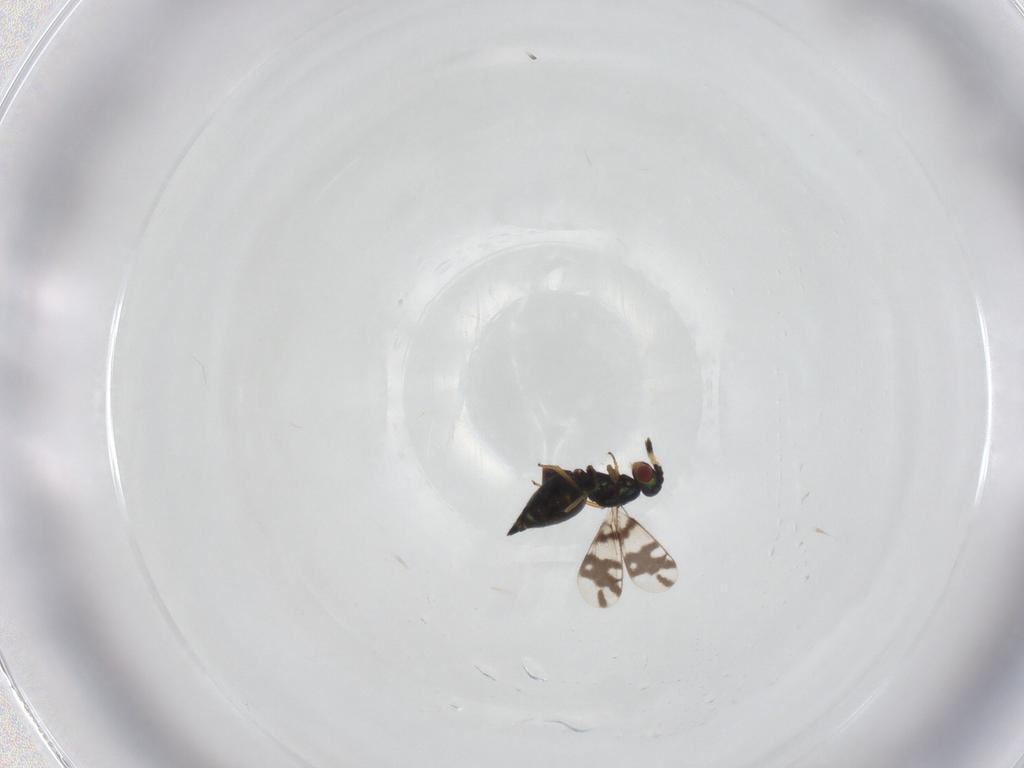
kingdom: Animalia
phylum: Arthropoda
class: Insecta
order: Hymenoptera
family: Eulophidae
